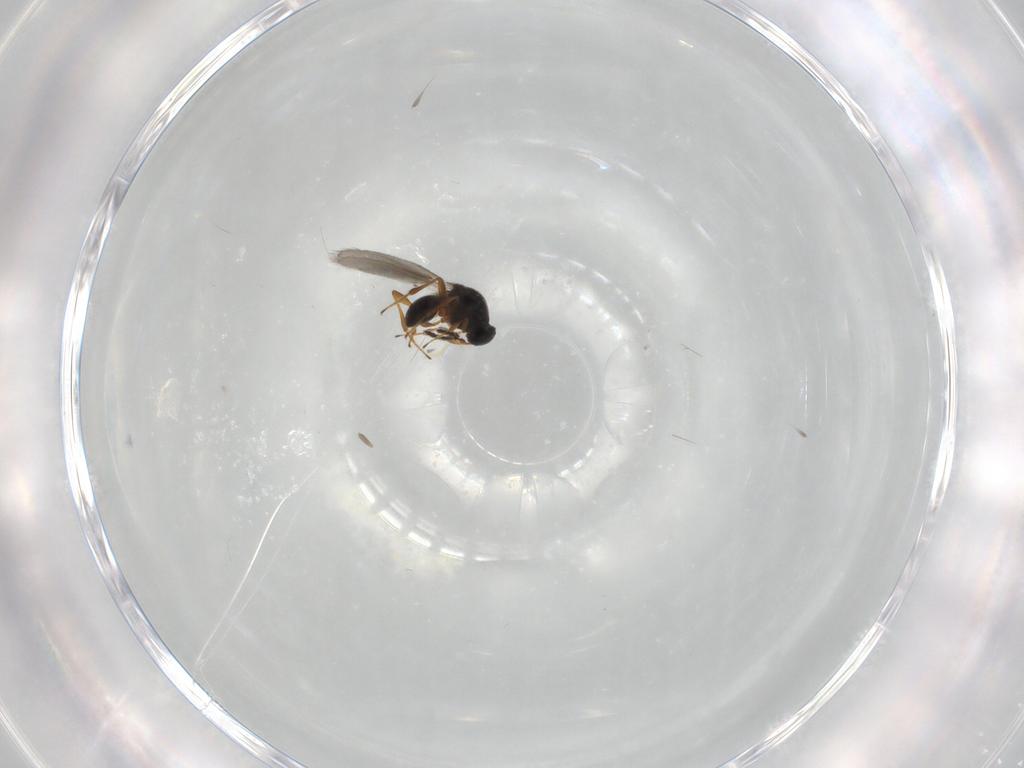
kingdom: Animalia
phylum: Arthropoda
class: Insecta
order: Hymenoptera
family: Platygastridae
